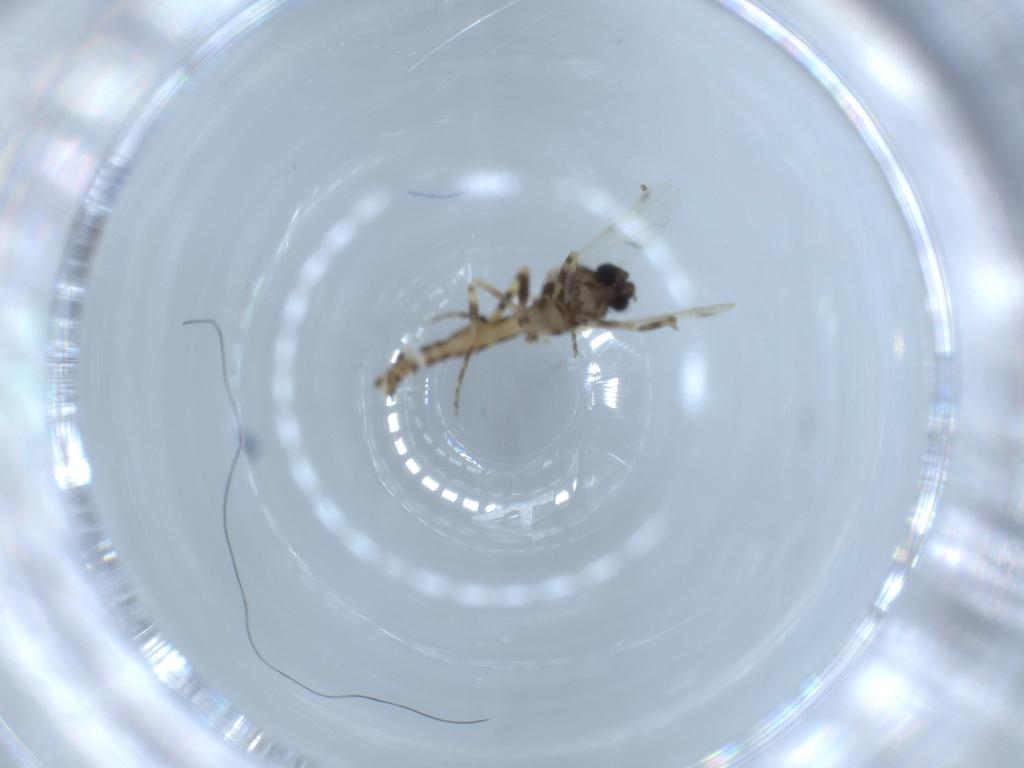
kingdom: Animalia
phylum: Arthropoda
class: Insecta
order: Diptera
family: Ceratopogonidae
